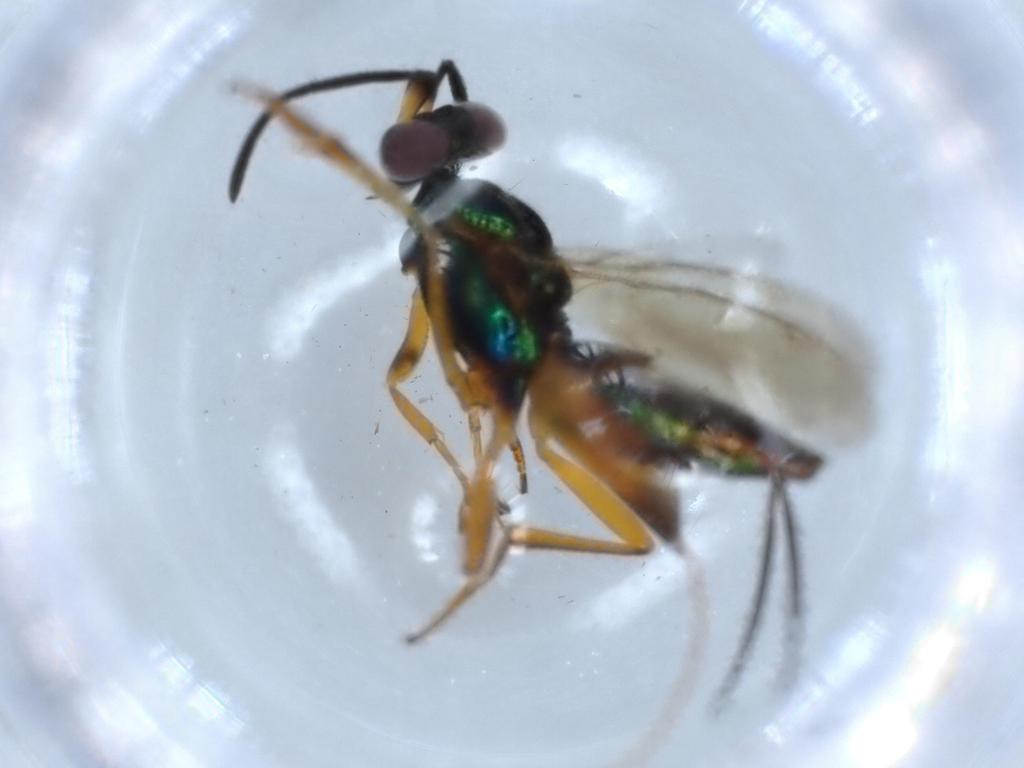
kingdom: Animalia
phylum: Arthropoda
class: Insecta
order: Hymenoptera
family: Eupelmidae
